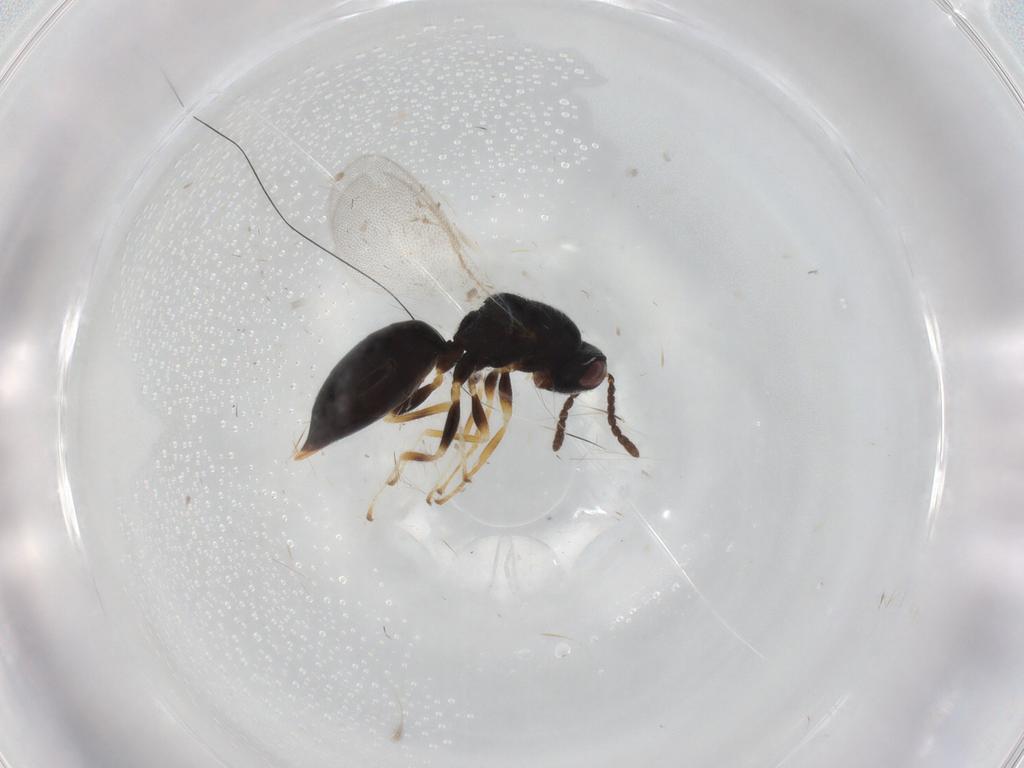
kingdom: Animalia
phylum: Arthropoda
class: Insecta
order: Hymenoptera
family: Eurytomidae
